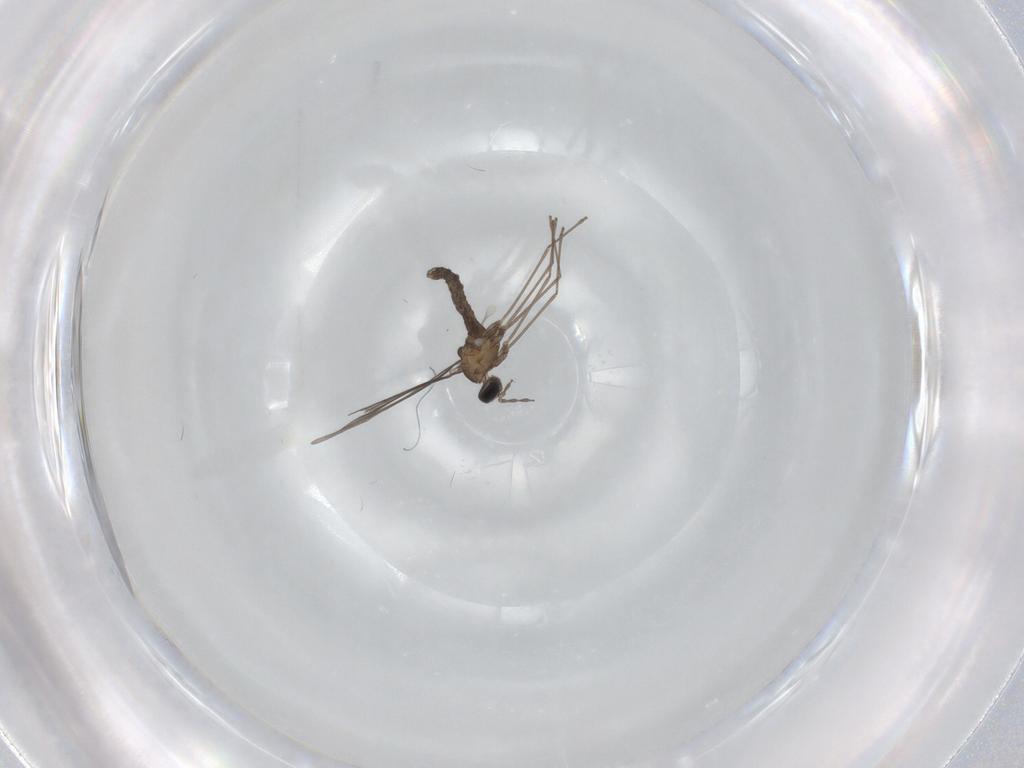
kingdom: Animalia
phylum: Arthropoda
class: Insecta
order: Diptera
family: Cecidomyiidae
